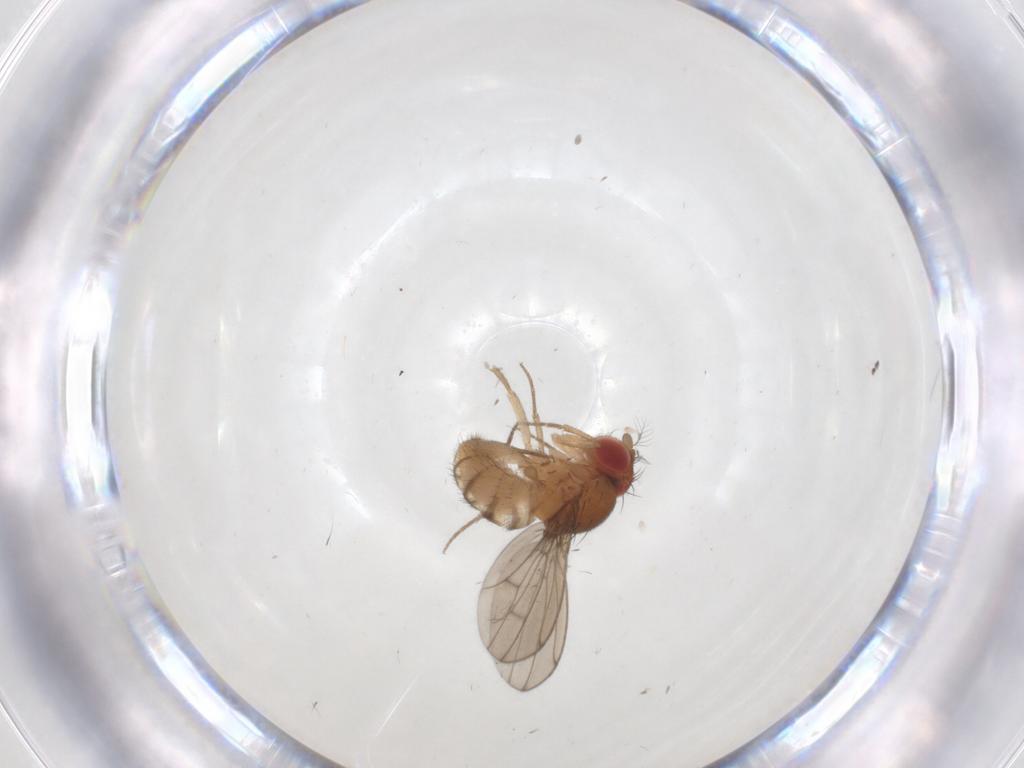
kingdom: Animalia
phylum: Arthropoda
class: Insecta
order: Diptera
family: Drosophilidae
